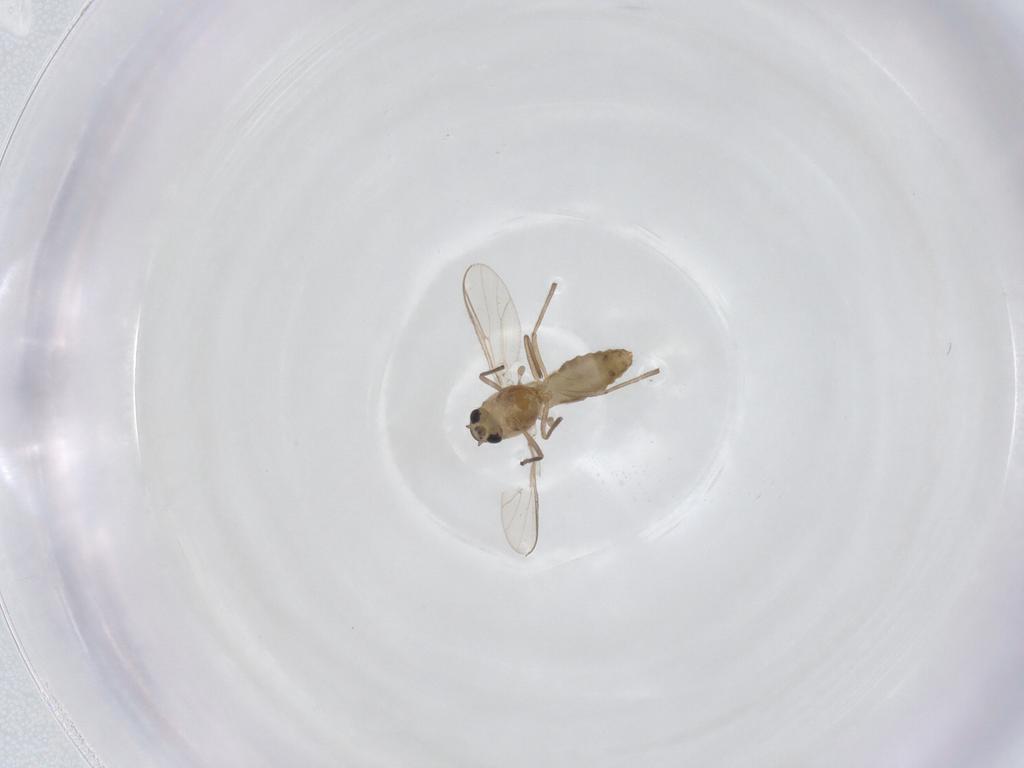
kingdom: Animalia
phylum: Arthropoda
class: Insecta
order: Diptera
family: Chironomidae
